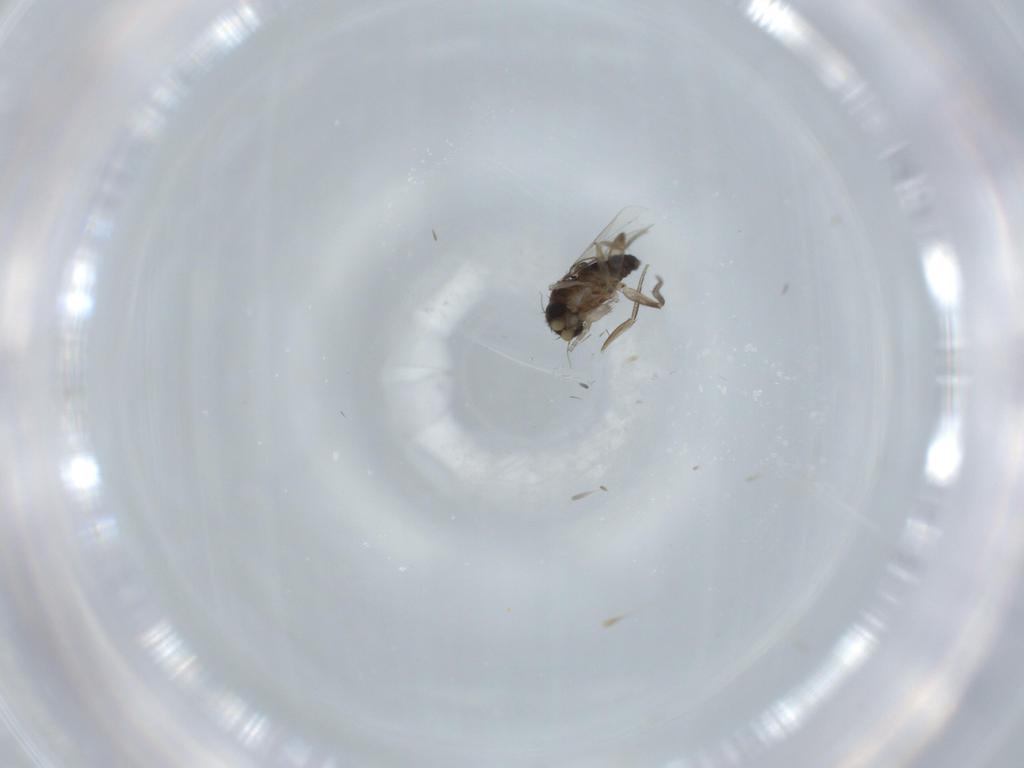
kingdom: Animalia
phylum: Arthropoda
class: Insecta
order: Diptera
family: Phoridae
